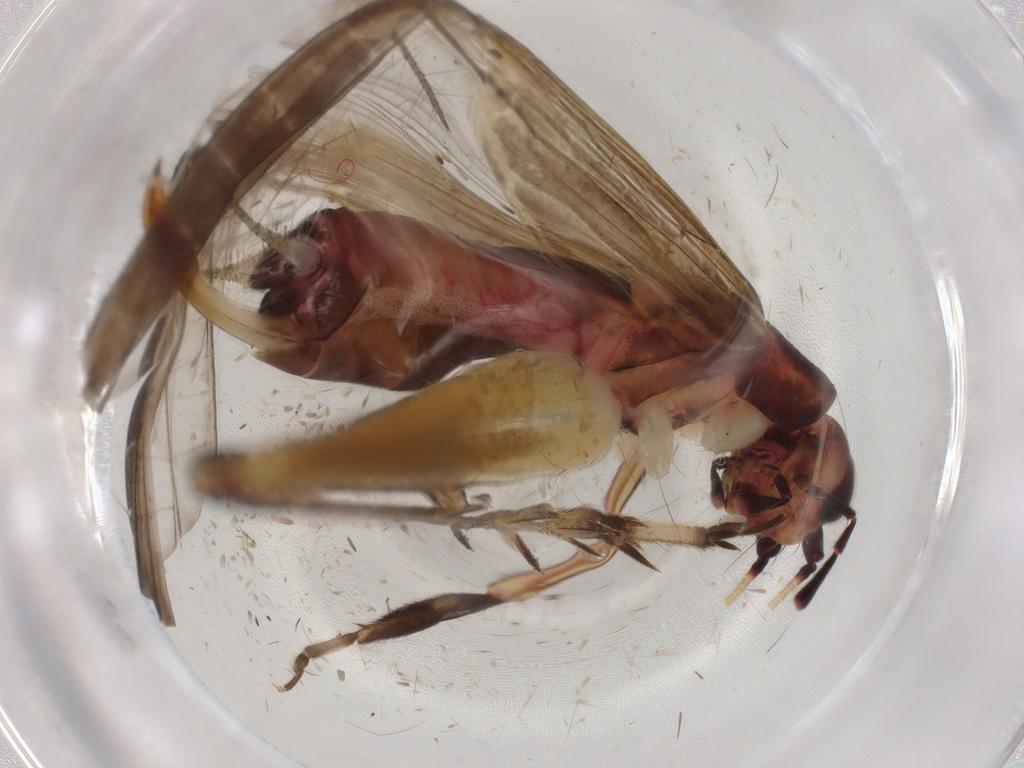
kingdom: Animalia
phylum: Arthropoda
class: Insecta
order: Orthoptera
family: Trigonidiidae
